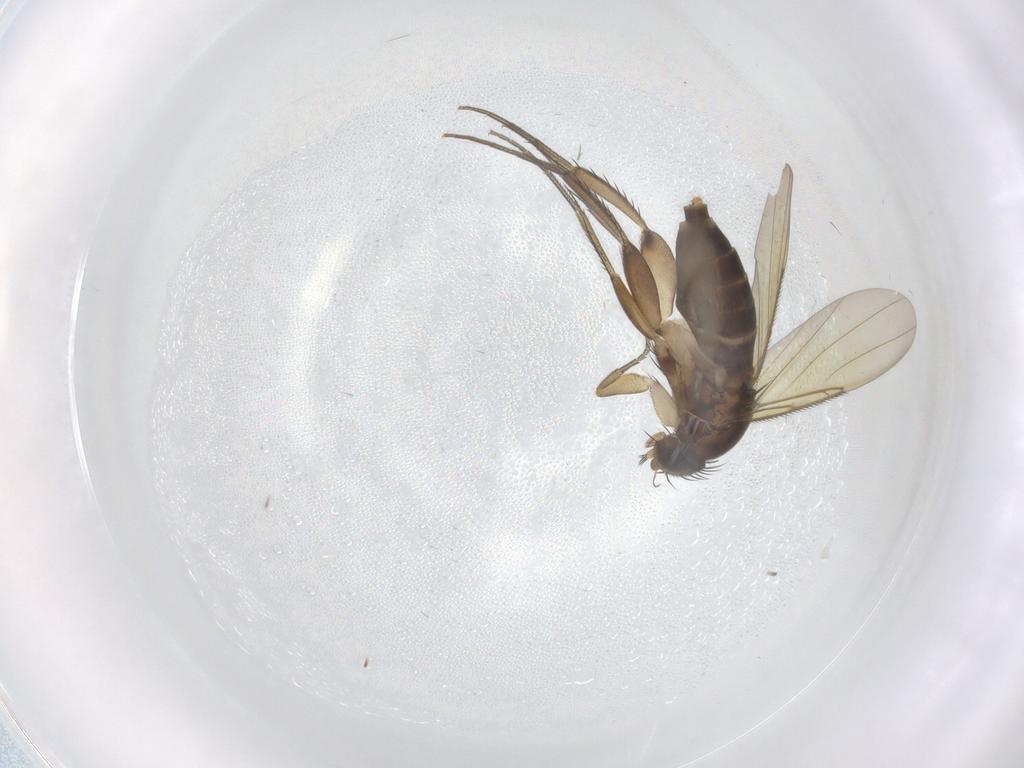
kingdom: Animalia
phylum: Arthropoda
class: Insecta
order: Diptera
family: Phoridae
